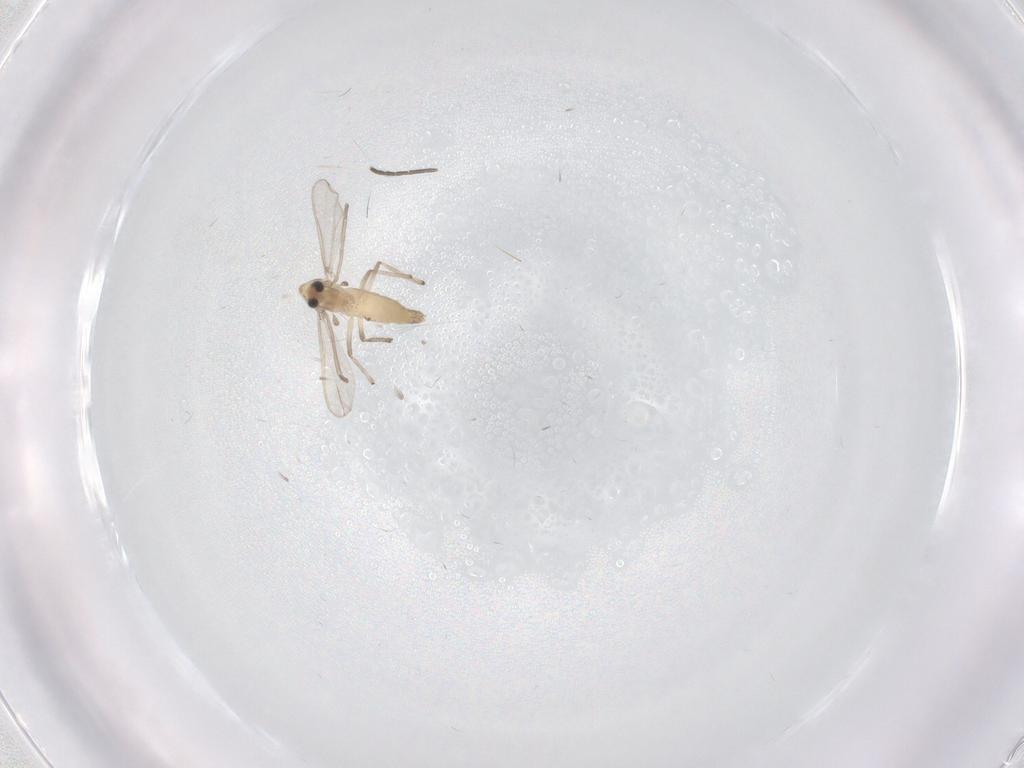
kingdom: Animalia
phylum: Arthropoda
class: Insecta
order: Diptera
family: Chironomidae
